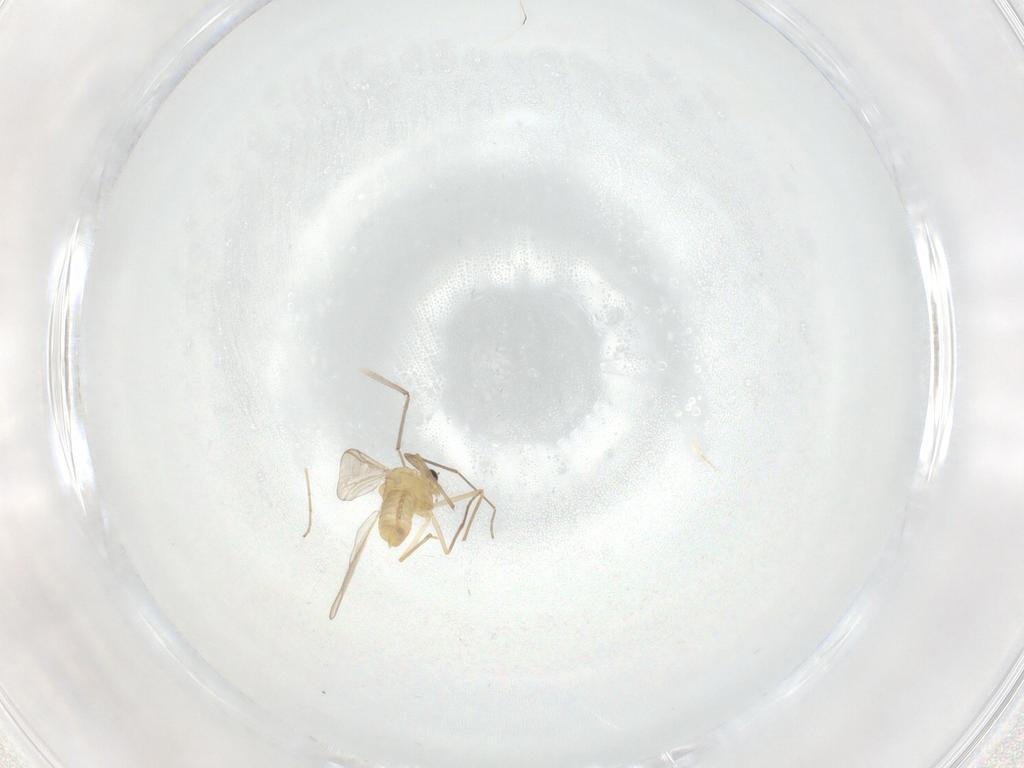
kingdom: Animalia
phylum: Arthropoda
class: Insecta
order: Diptera
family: Chironomidae
